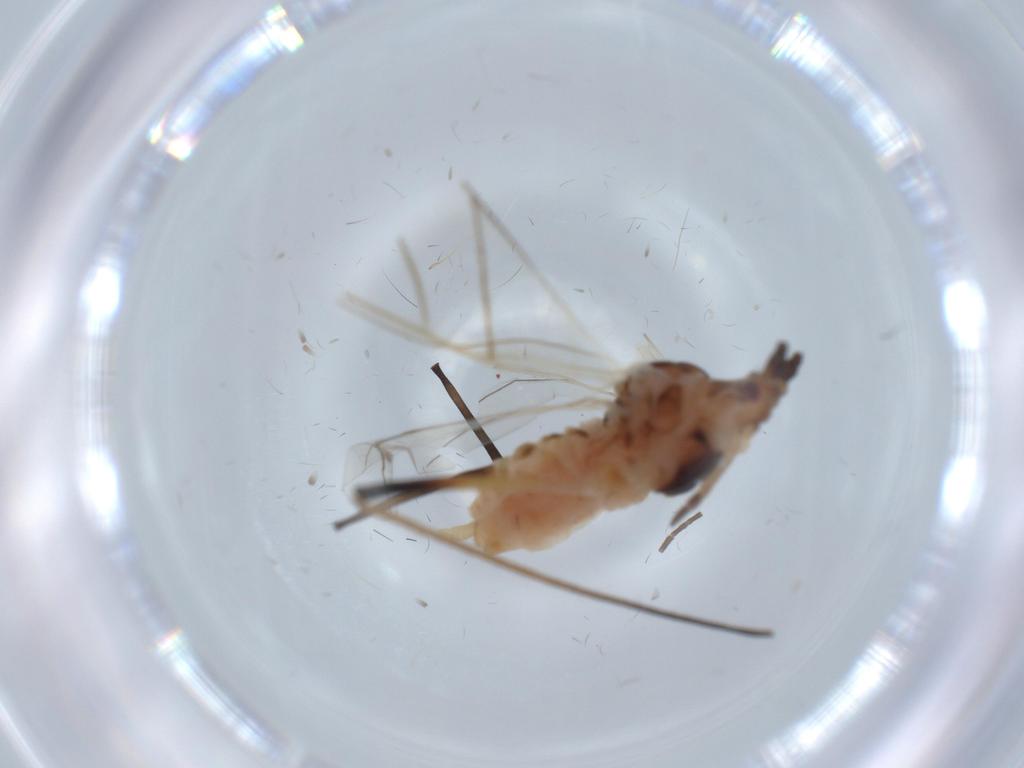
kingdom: Animalia
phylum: Arthropoda
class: Insecta
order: Hemiptera
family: Aphididae
